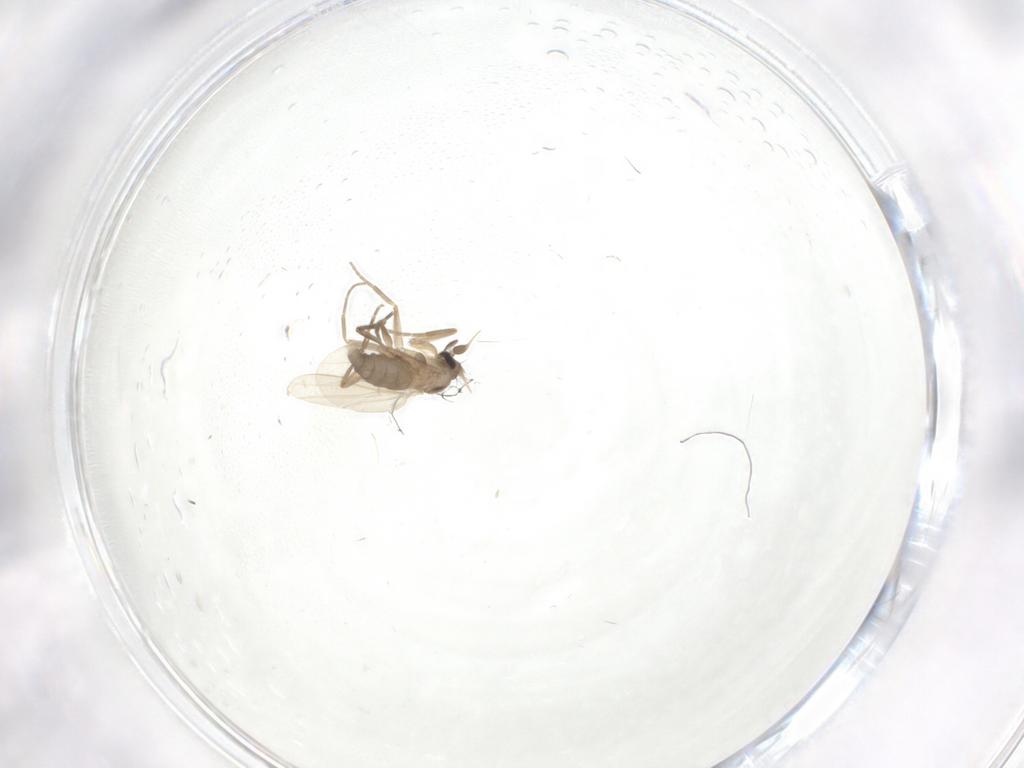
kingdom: Animalia
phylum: Arthropoda
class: Insecta
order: Diptera
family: Phoridae
